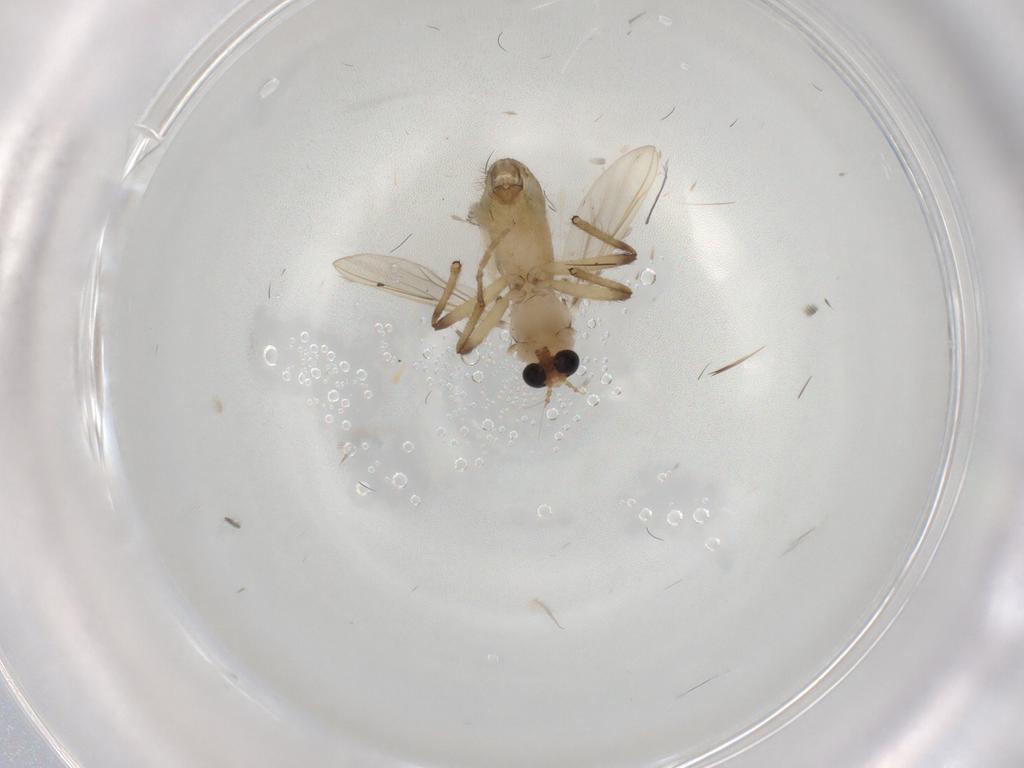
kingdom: Animalia
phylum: Arthropoda
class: Insecta
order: Diptera
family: Chironomidae
